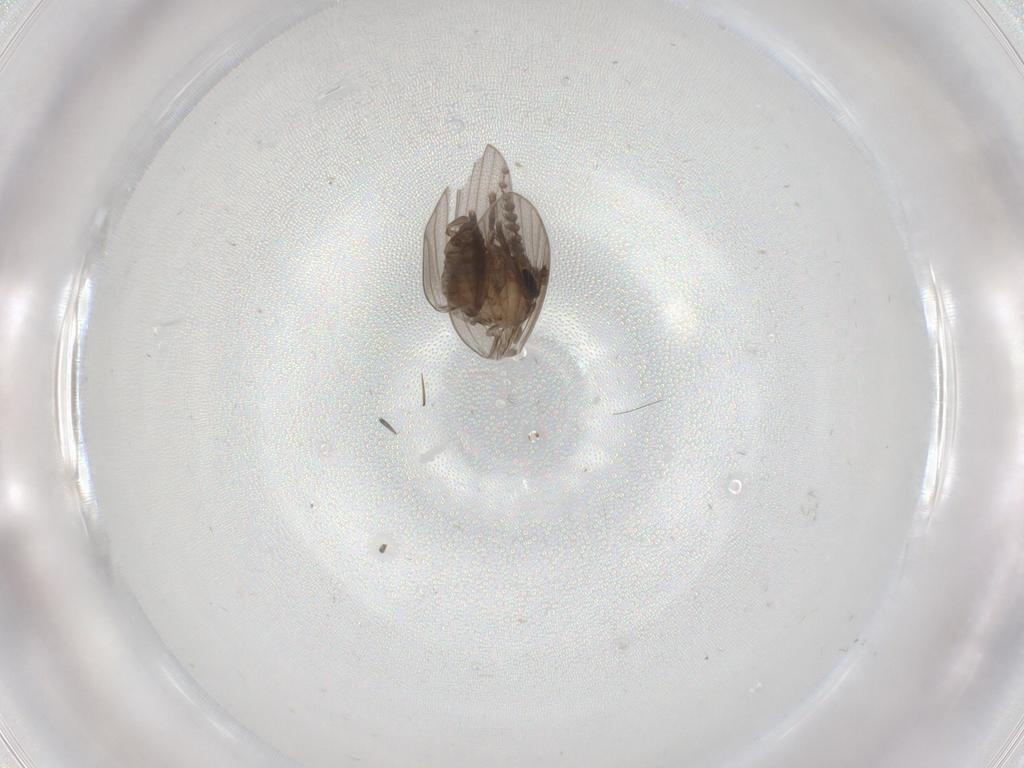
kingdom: Animalia
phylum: Arthropoda
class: Insecta
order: Diptera
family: Psychodidae
